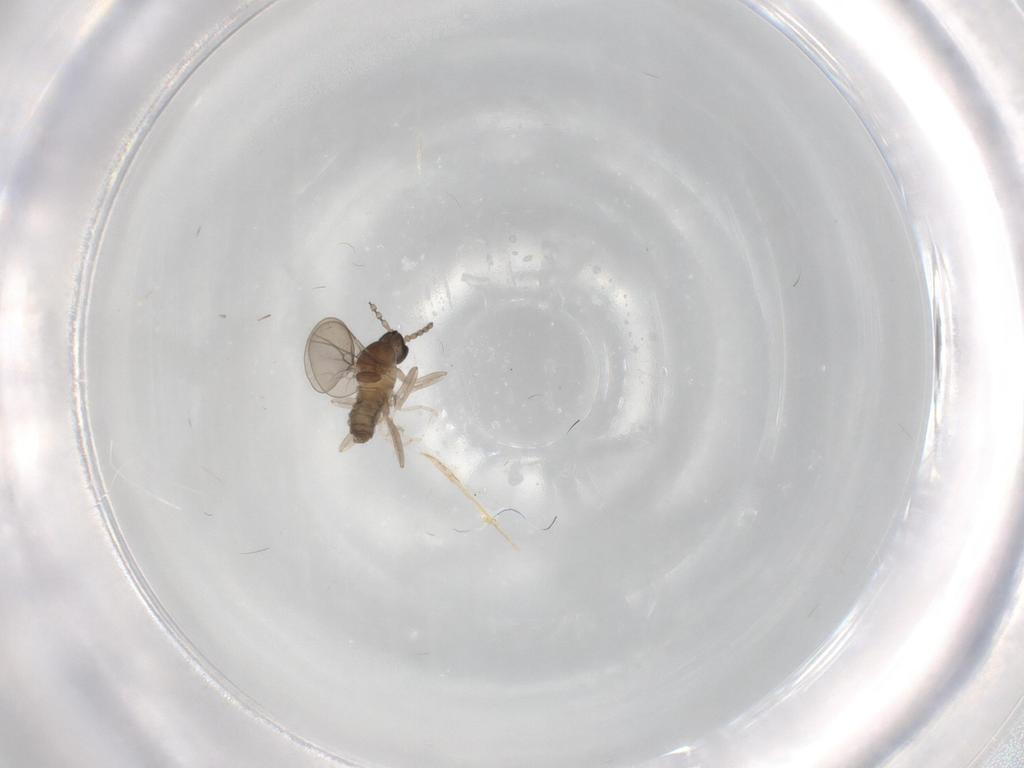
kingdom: Animalia
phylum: Arthropoda
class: Insecta
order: Diptera
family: Cecidomyiidae
